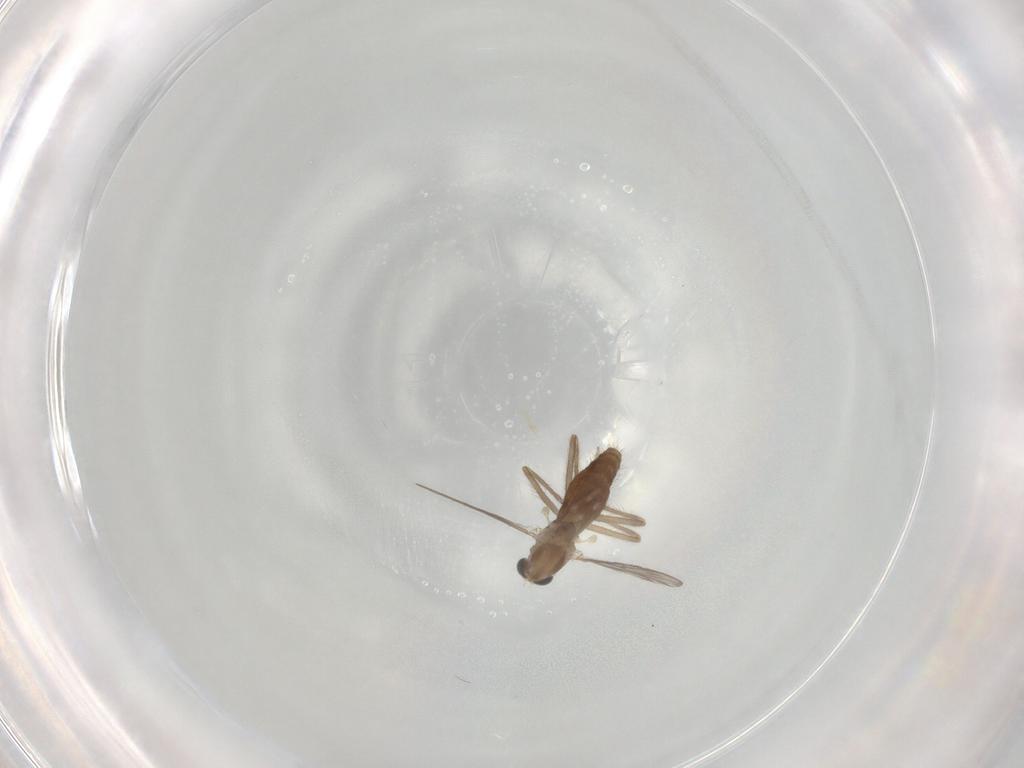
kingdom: Animalia
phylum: Arthropoda
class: Insecta
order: Diptera
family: Chironomidae
